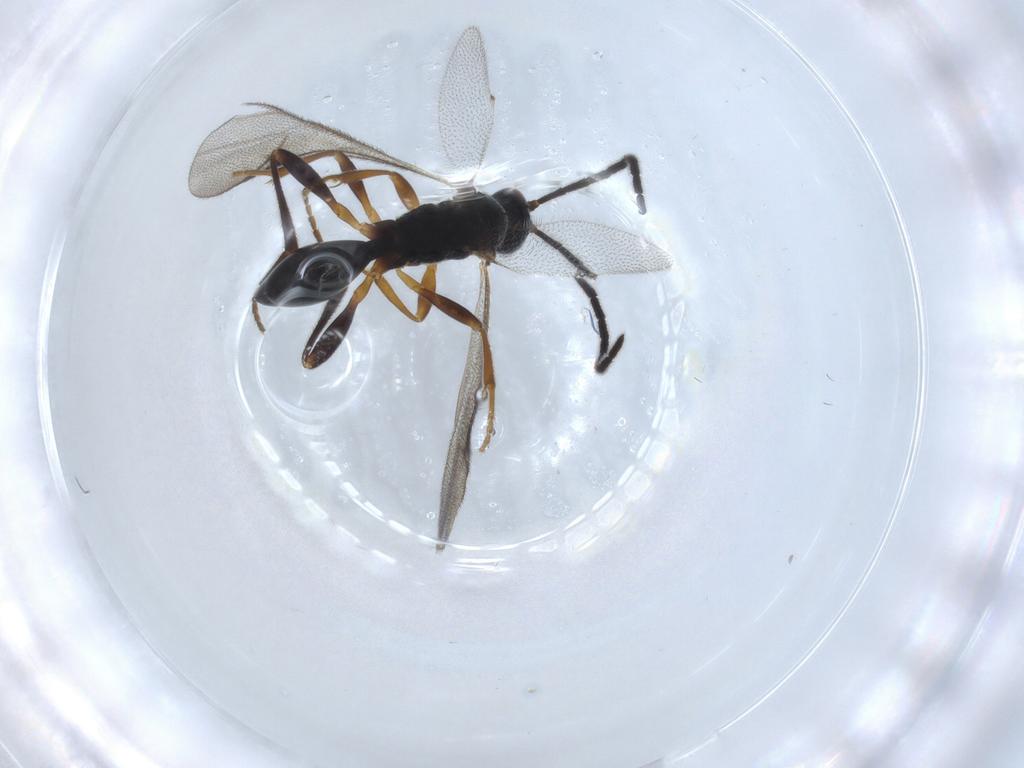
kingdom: Animalia
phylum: Arthropoda
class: Insecta
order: Hymenoptera
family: Proctotrupidae
